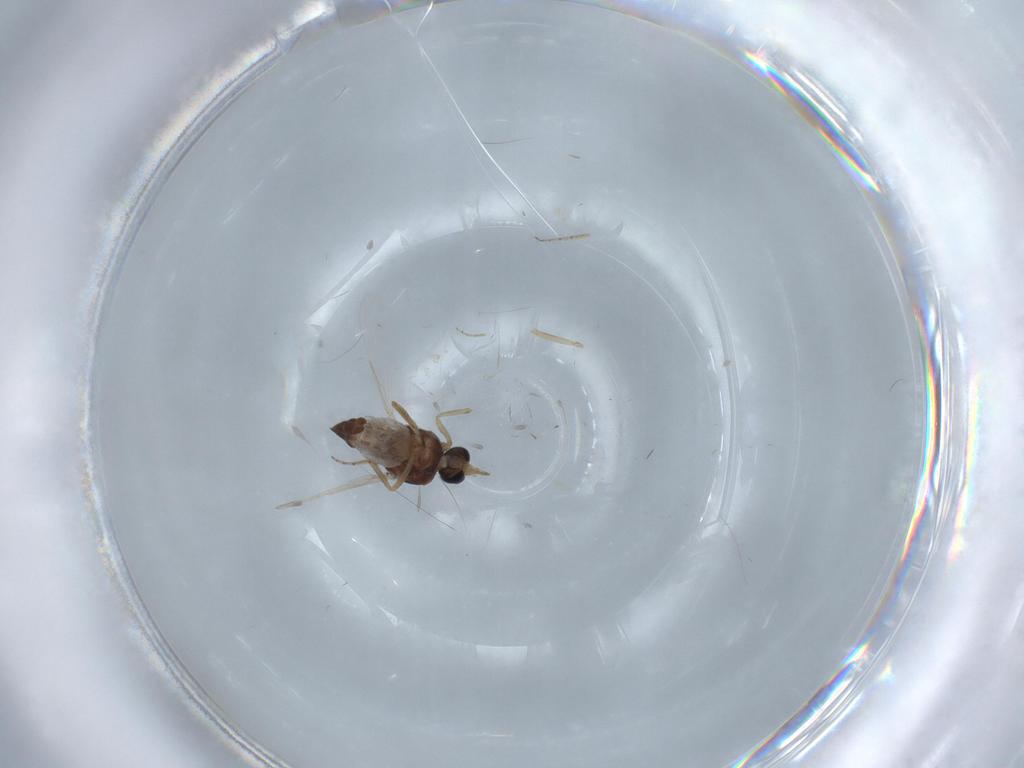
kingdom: Animalia
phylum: Arthropoda
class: Insecta
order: Diptera
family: Ceratopogonidae
